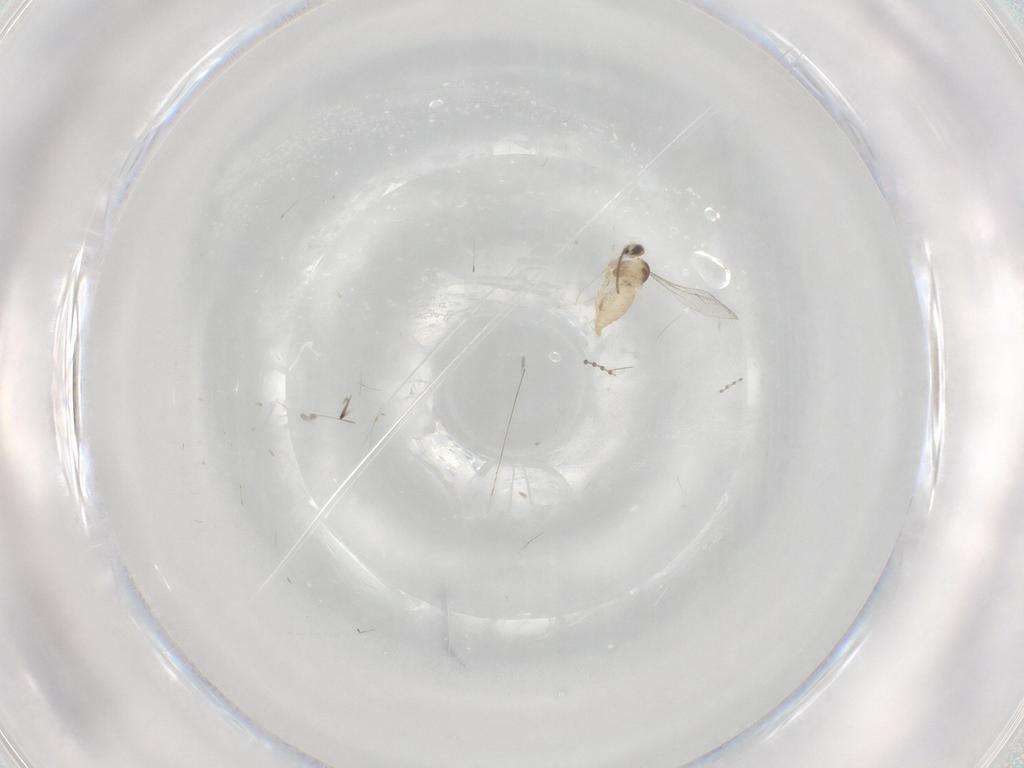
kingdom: Animalia
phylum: Arthropoda
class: Insecta
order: Diptera
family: Cecidomyiidae
